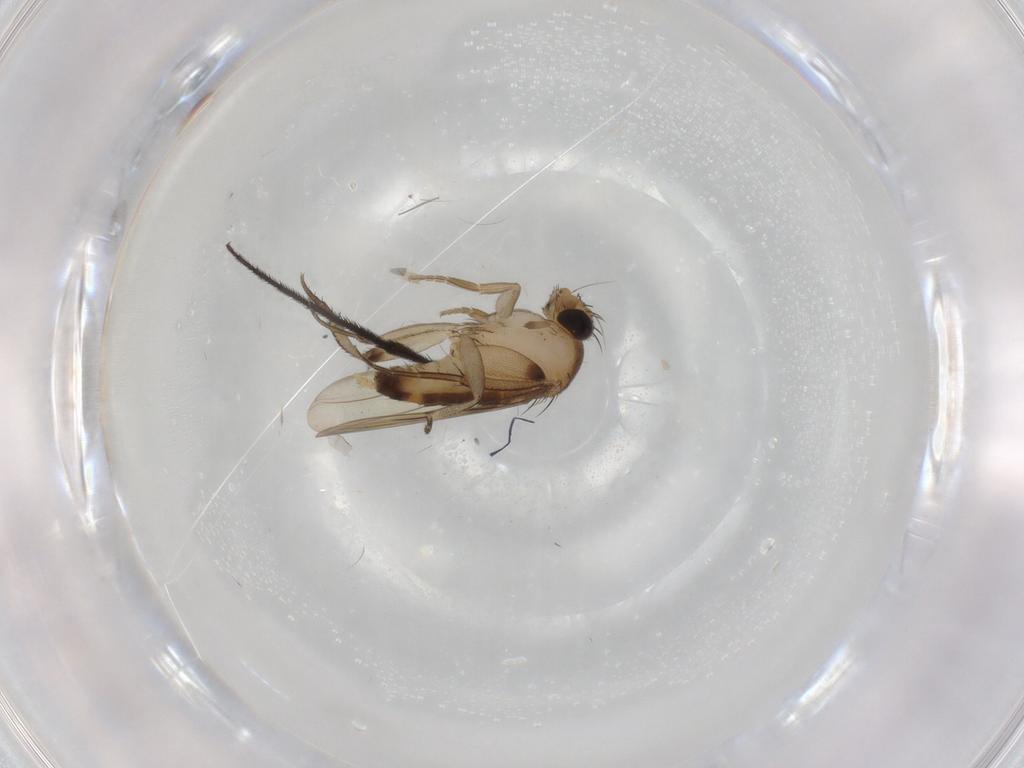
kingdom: Animalia
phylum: Arthropoda
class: Insecta
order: Diptera
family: Phoridae
